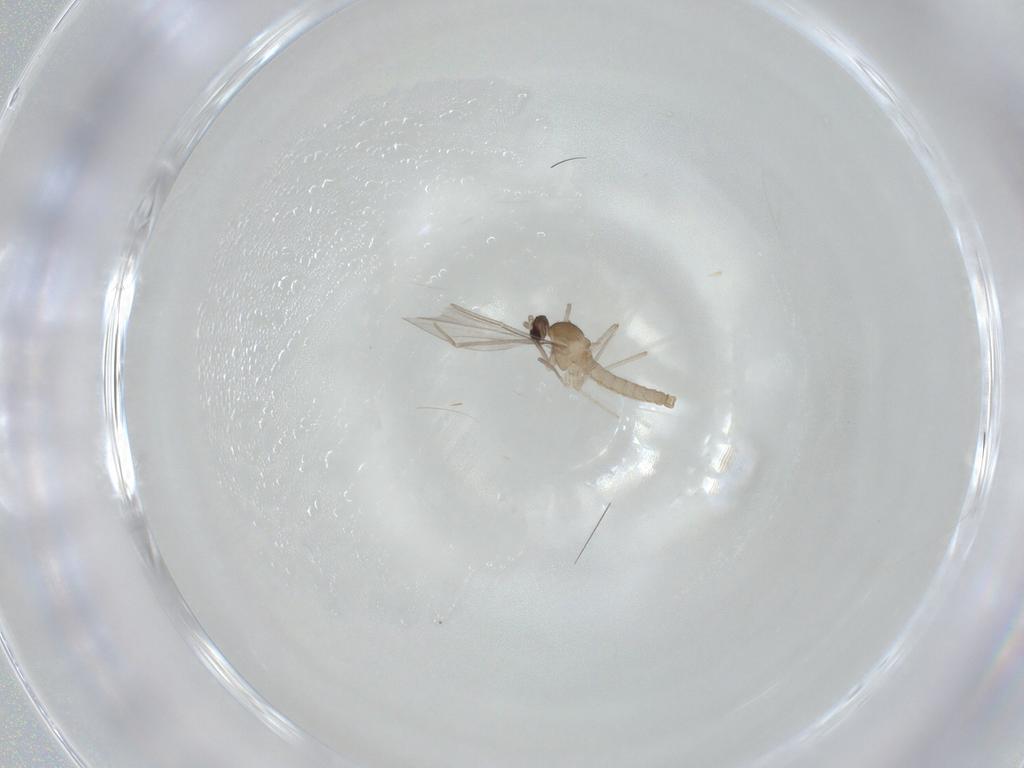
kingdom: Animalia
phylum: Arthropoda
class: Insecta
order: Diptera
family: Cecidomyiidae
